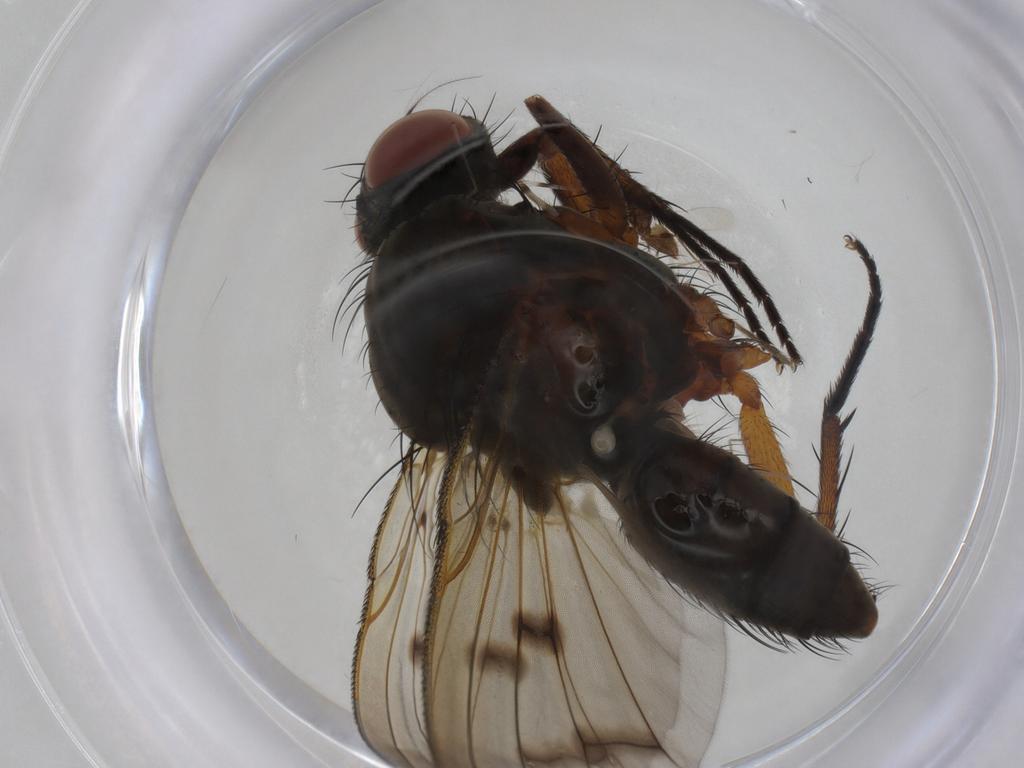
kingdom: Animalia
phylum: Arthropoda
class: Insecta
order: Diptera
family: Anthomyiidae
